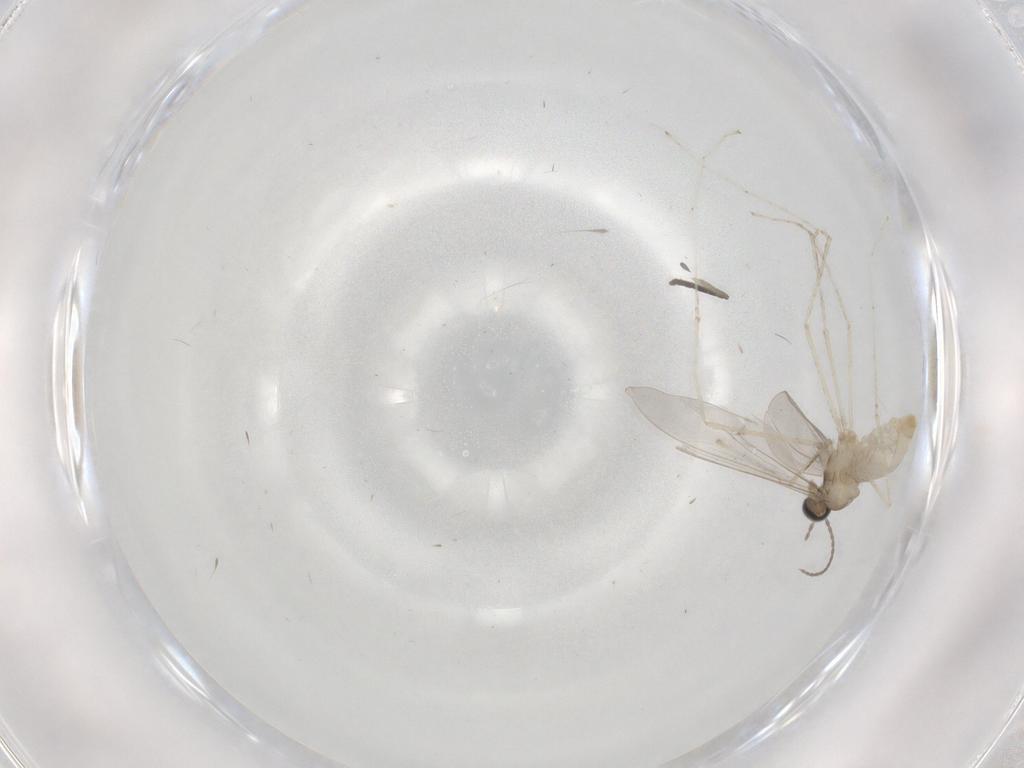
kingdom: Animalia
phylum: Arthropoda
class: Insecta
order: Diptera
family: Cecidomyiidae
